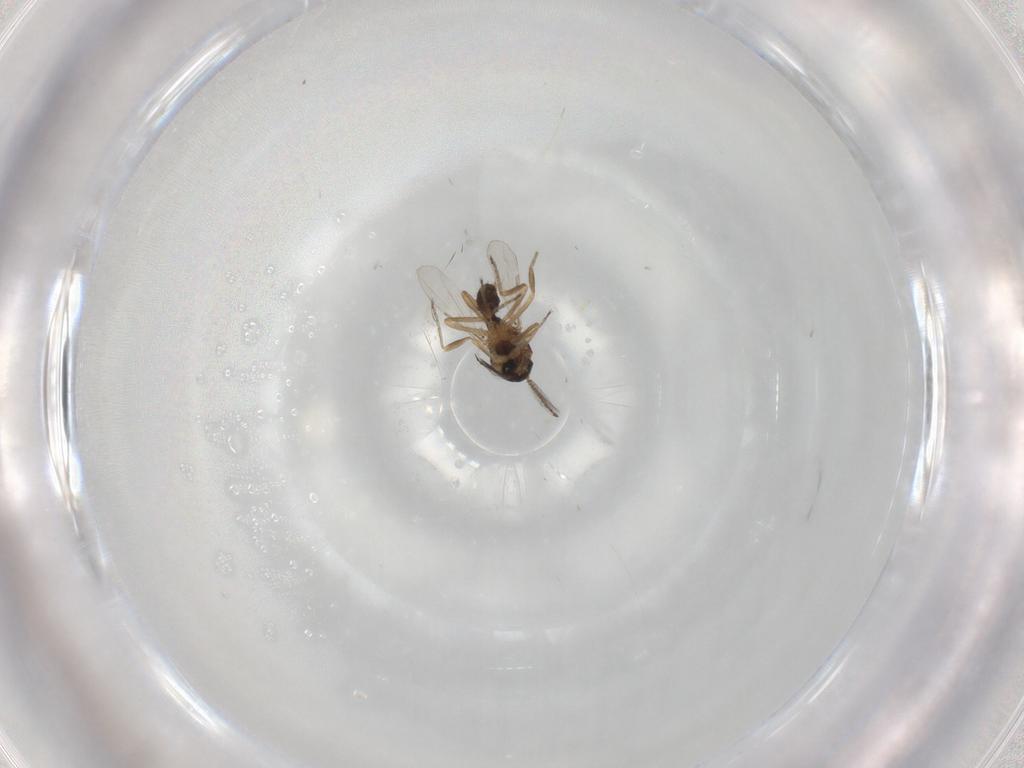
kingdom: Animalia
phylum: Arthropoda
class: Insecta
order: Diptera
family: Ceratopogonidae
